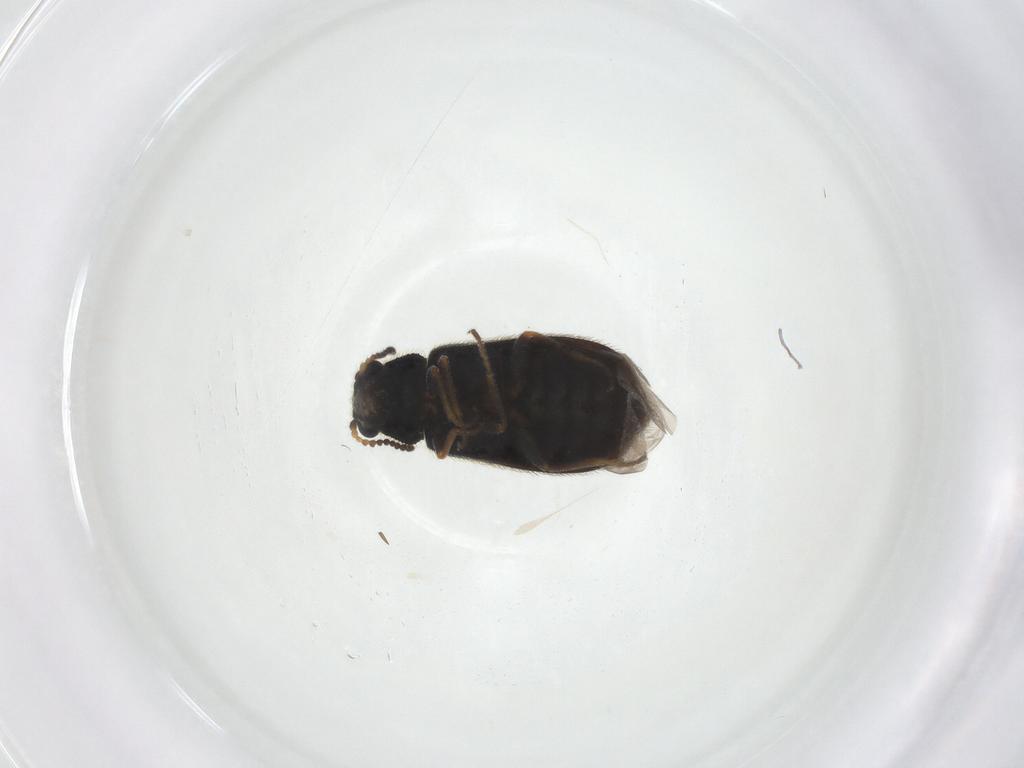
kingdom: Animalia
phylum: Arthropoda
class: Insecta
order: Coleoptera
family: Melyridae
